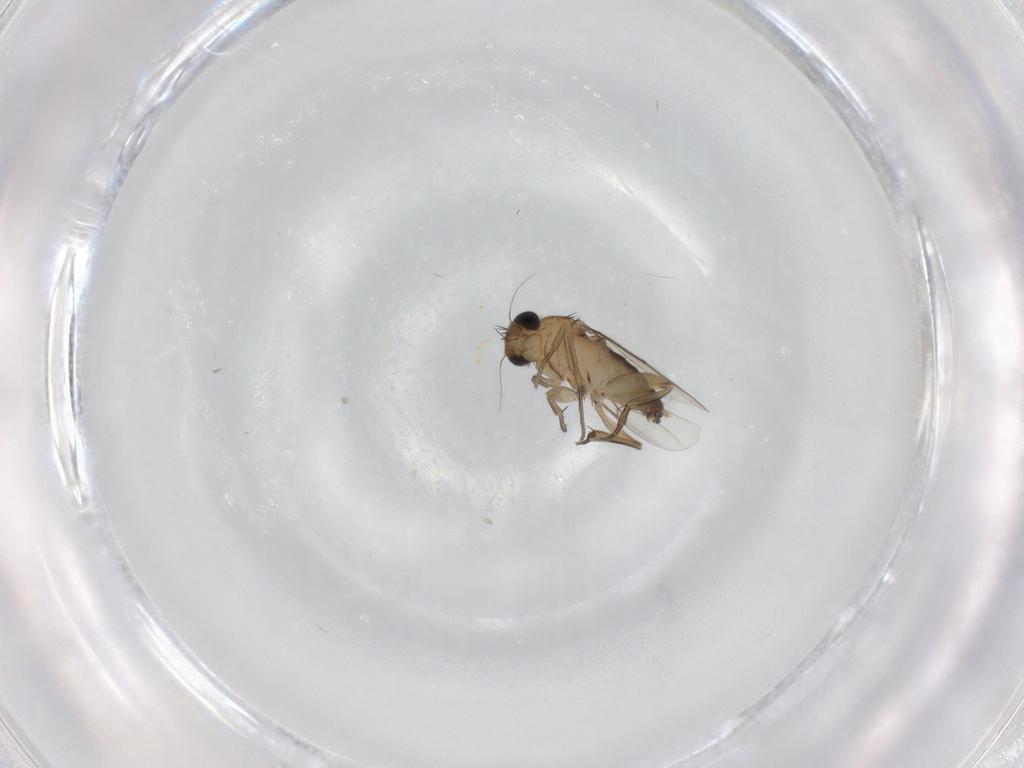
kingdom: Animalia
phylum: Arthropoda
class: Insecta
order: Diptera
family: Phoridae
